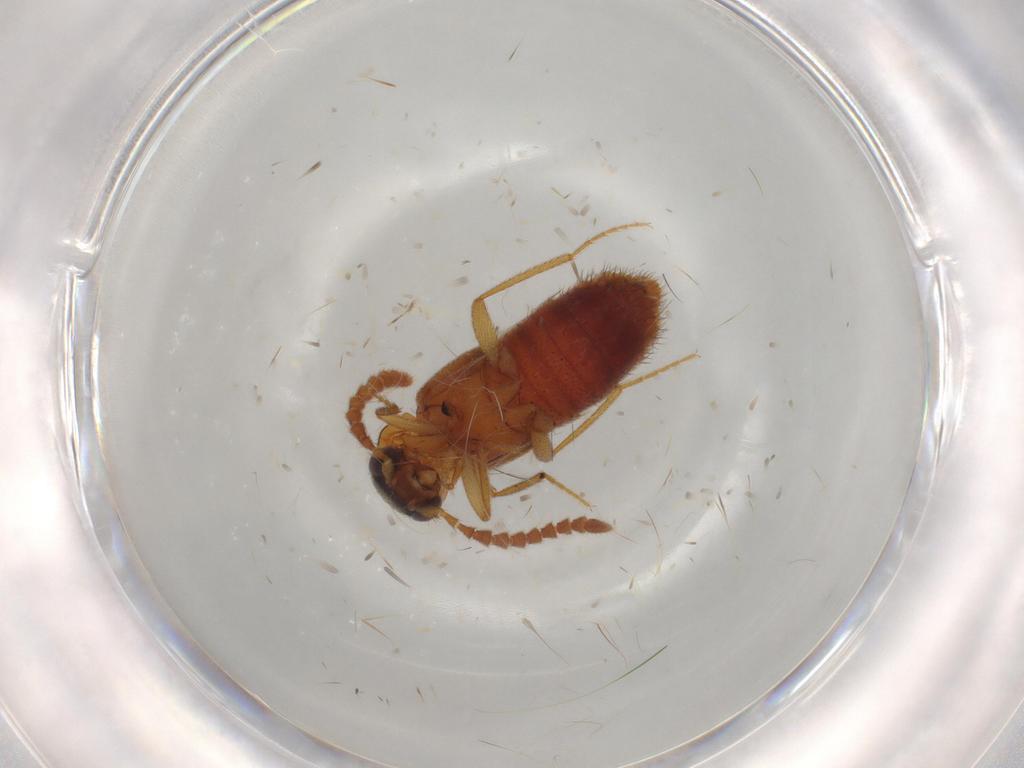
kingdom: Animalia
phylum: Arthropoda
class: Insecta
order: Coleoptera
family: Staphylinidae
